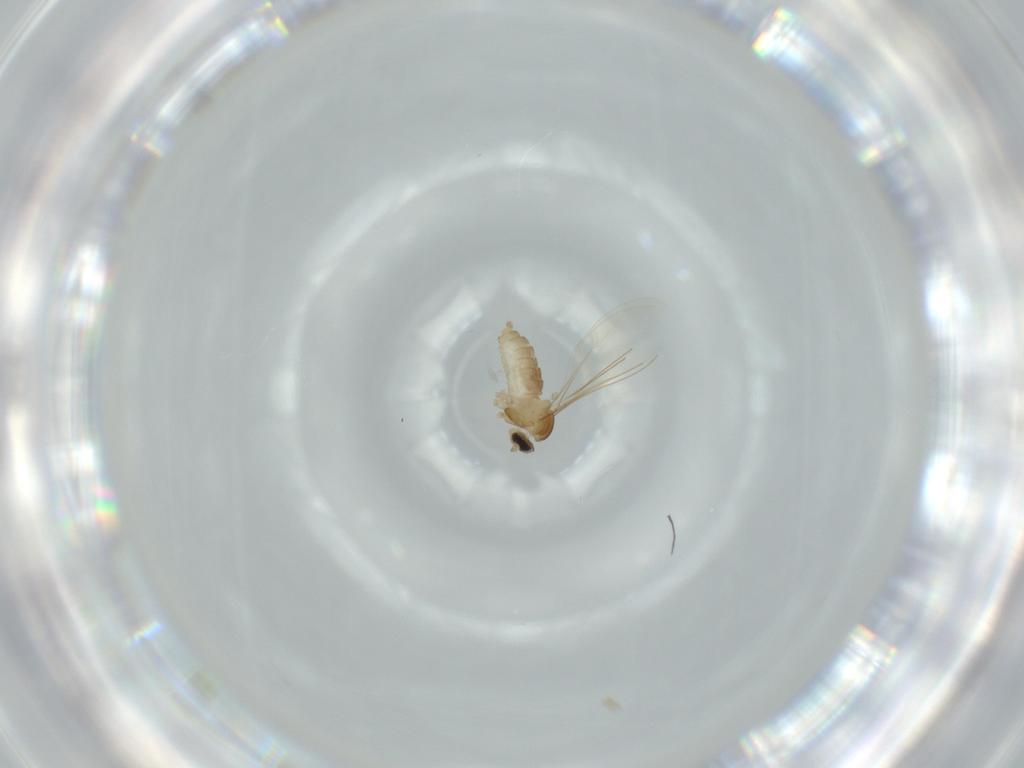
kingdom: Animalia
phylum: Arthropoda
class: Insecta
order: Diptera
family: Cecidomyiidae
